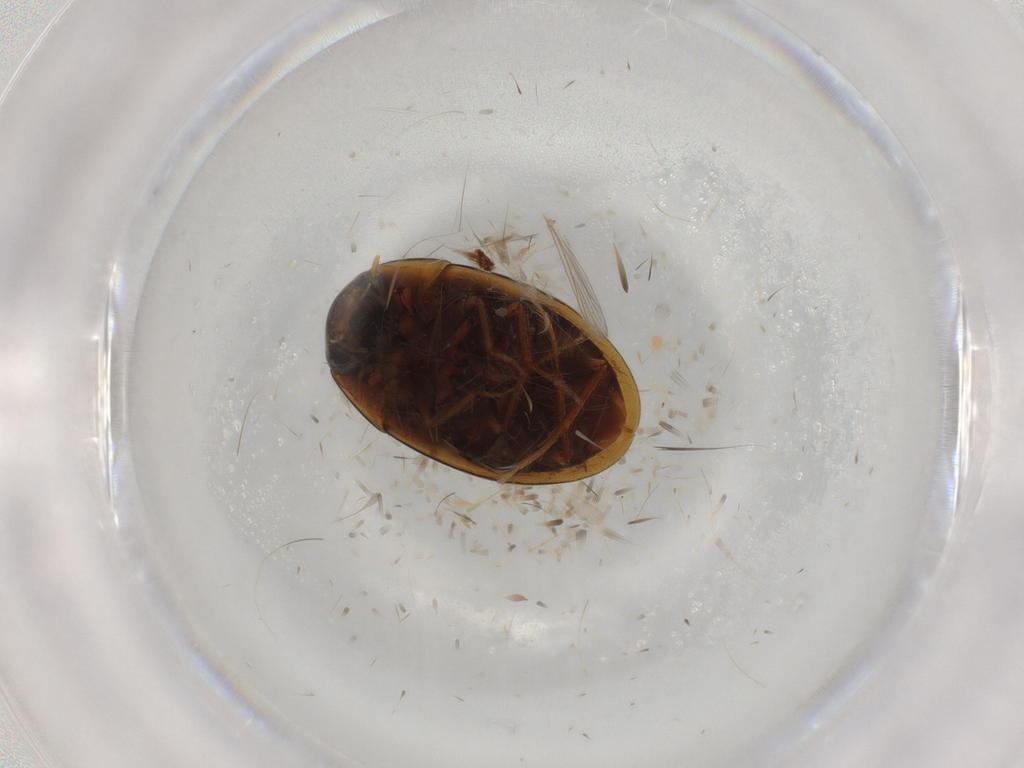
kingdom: Animalia
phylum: Arthropoda
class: Insecta
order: Coleoptera
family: Hydrophilidae
